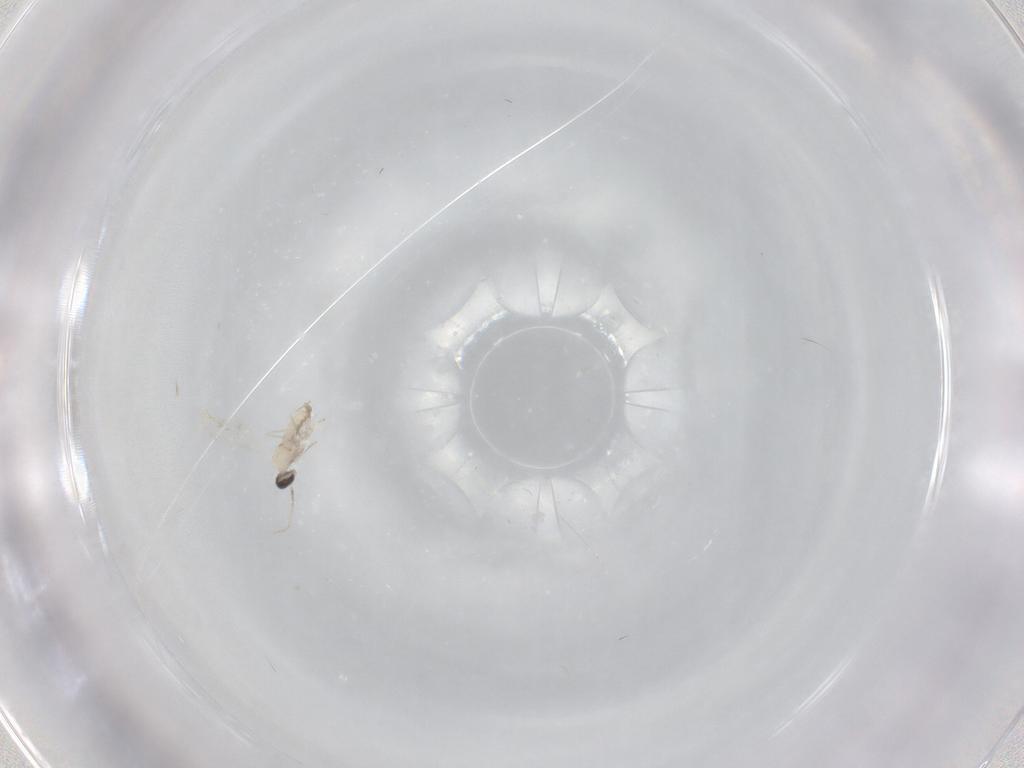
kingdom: Animalia
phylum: Arthropoda
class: Insecta
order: Diptera
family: Cecidomyiidae
